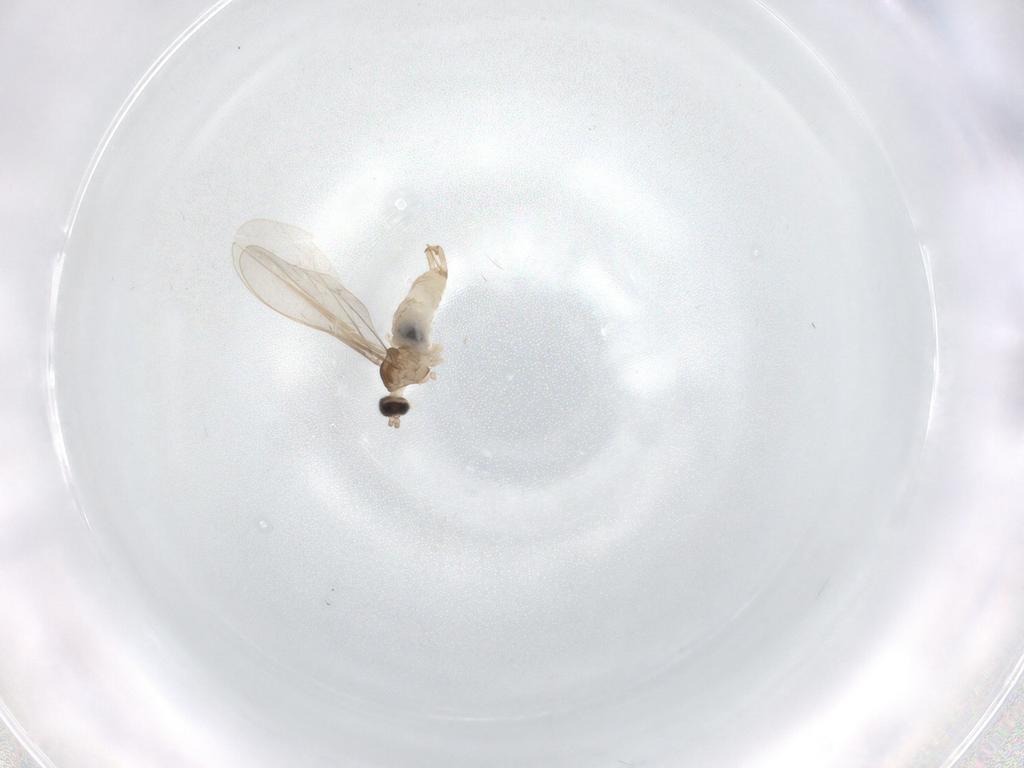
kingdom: Animalia
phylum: Arthropoda
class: Insecta
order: Diptera
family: Cecidomyiidae
